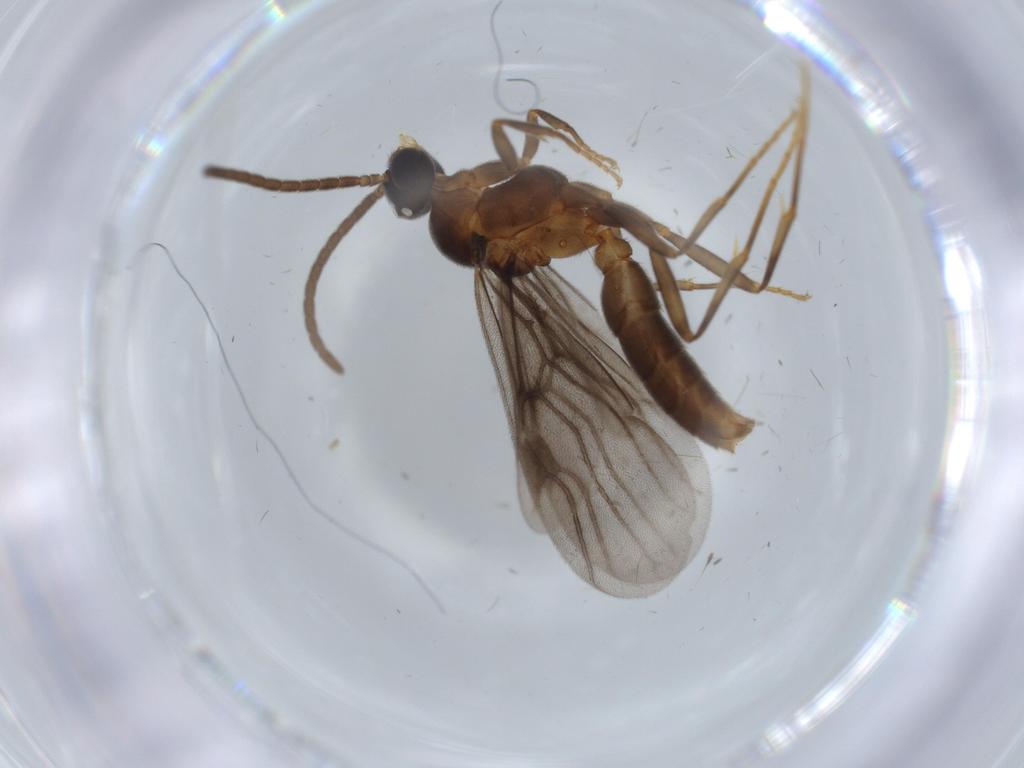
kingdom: Animalia
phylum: Arthropoda
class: Insecta
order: Hymenoptera
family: Formicidae
